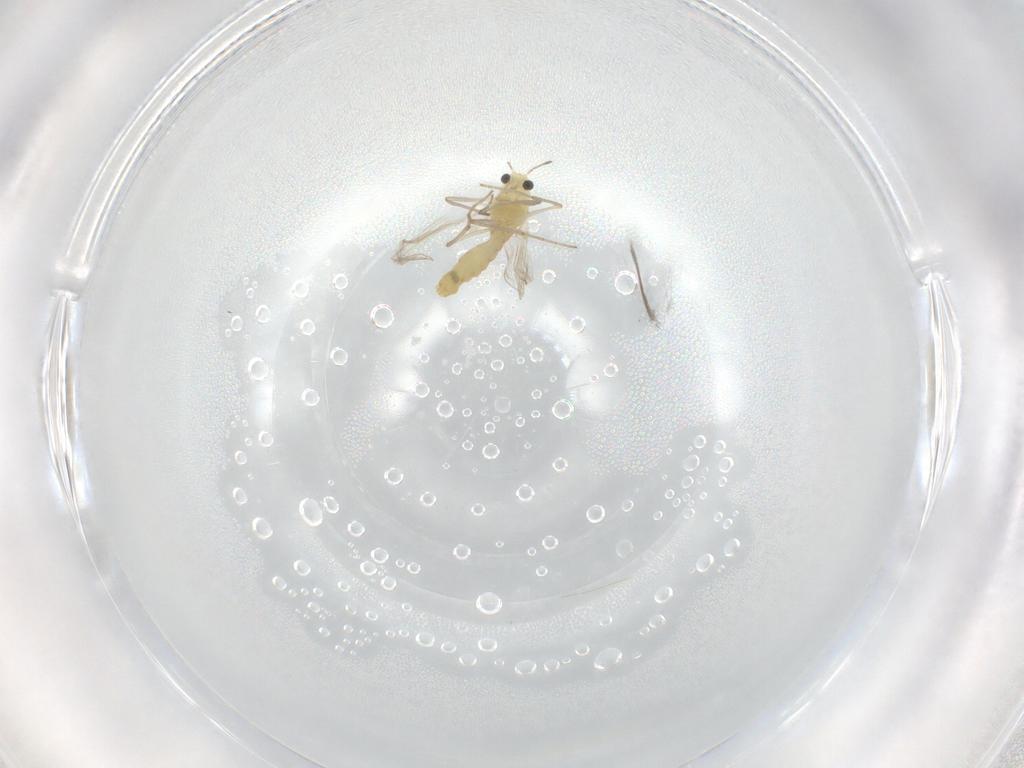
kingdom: Animalia
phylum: Arthropoda
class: Insecta
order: Diptera
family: Chironomidae
